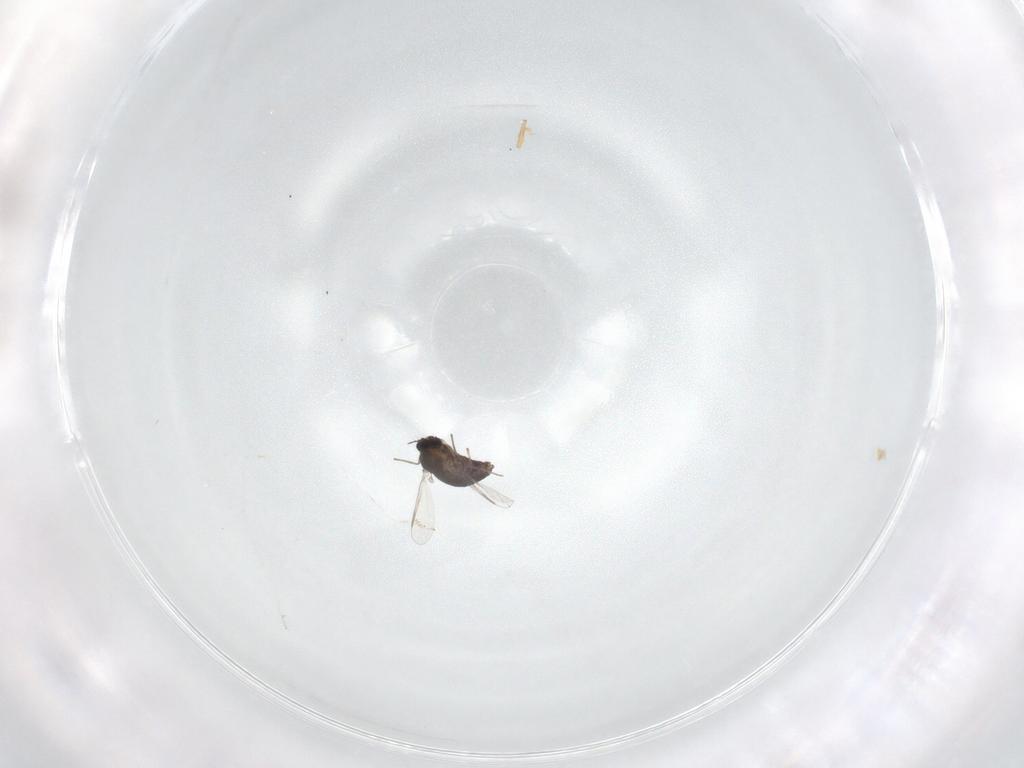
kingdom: Animalia
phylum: Arthropoda
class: Insecta
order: Diptera
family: Chironomidae
